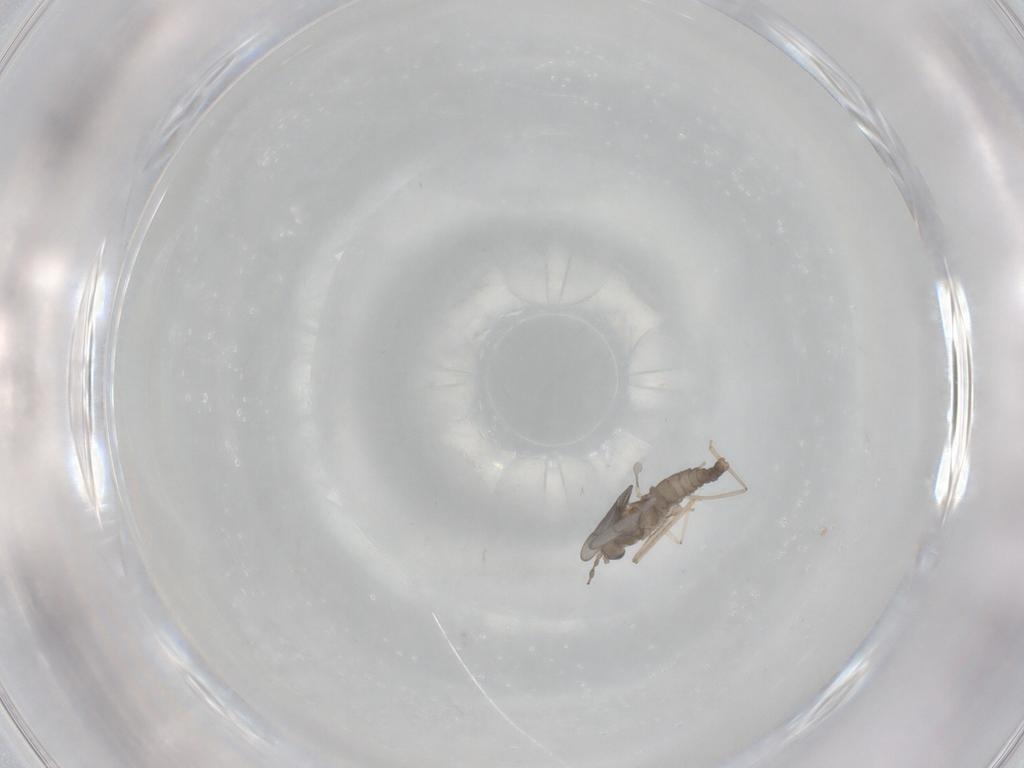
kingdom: Animalia
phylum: Arthropoda
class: Insecta
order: Diptera
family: Cecidomyiidae
